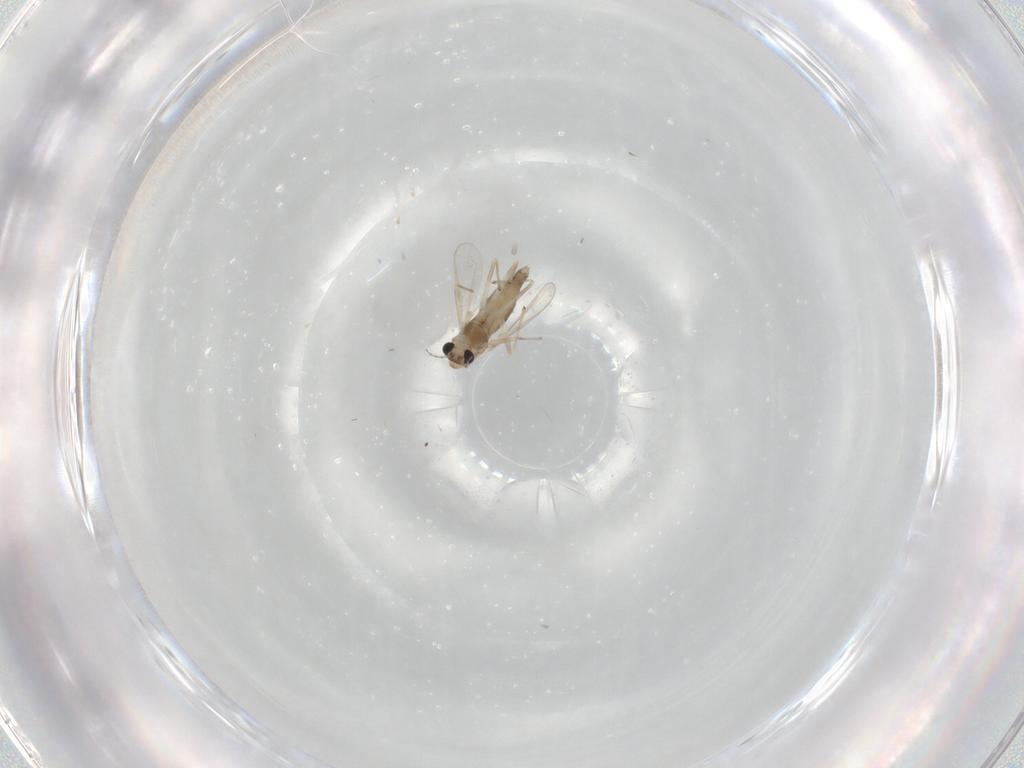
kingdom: Animalia
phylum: Arthropoda
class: Insecta
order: Diptera
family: Chironomidae
